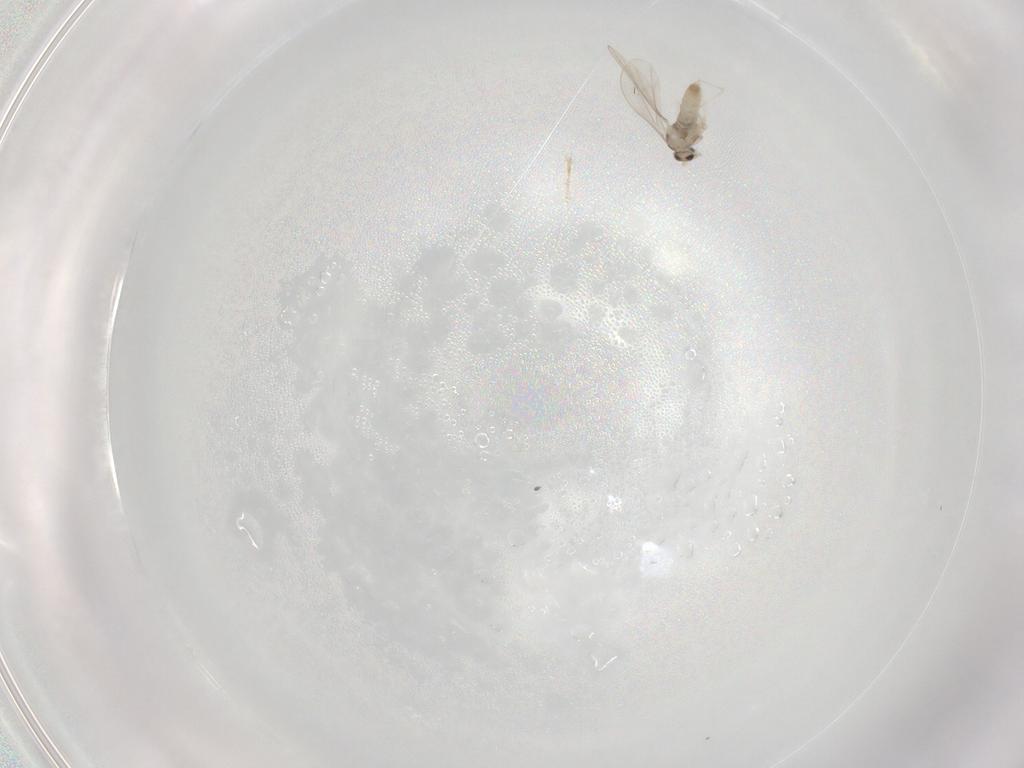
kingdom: Animalia
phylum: Arthropoda
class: Insecta
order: Diptera
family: Cecidomyiidae
